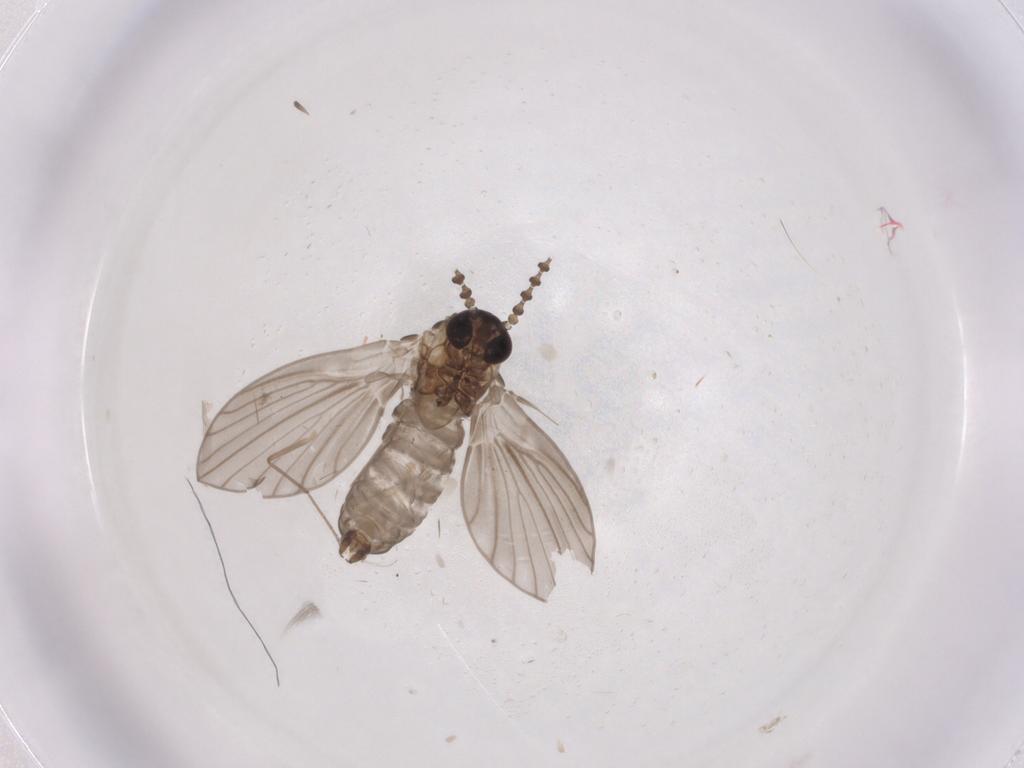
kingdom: Animalia
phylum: Arthropoda
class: Insecta
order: Diptera
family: Psychodidae
